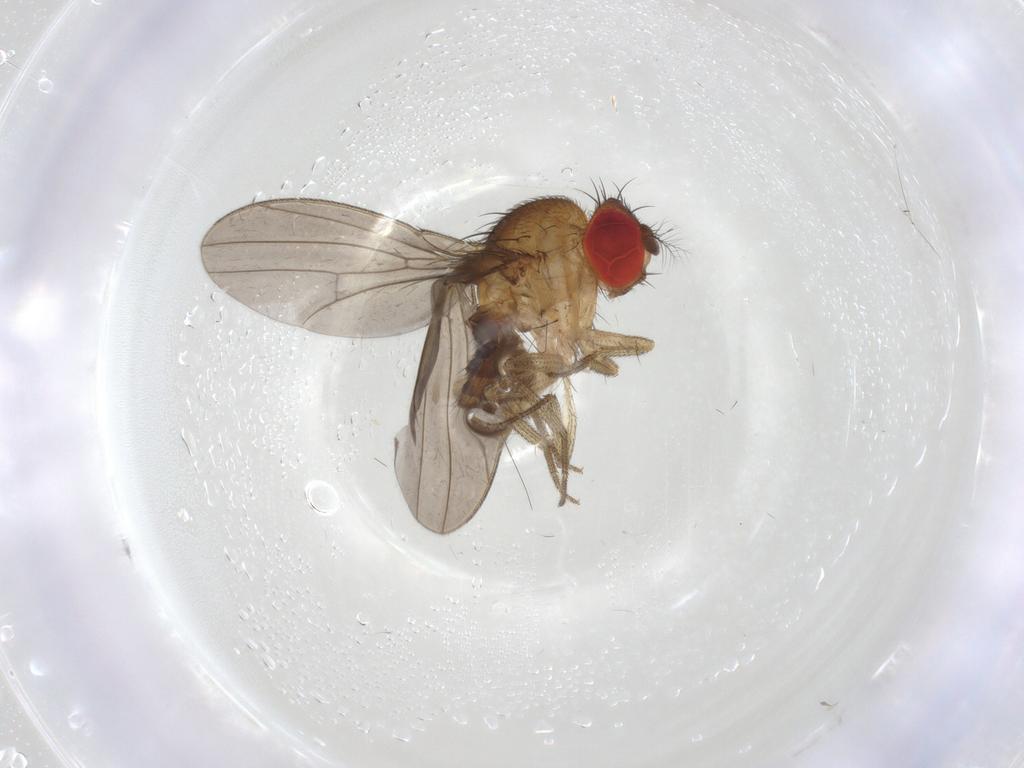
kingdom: Animalia
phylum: Arthropoda
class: Insecta
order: Diptera
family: Drosophilidae
